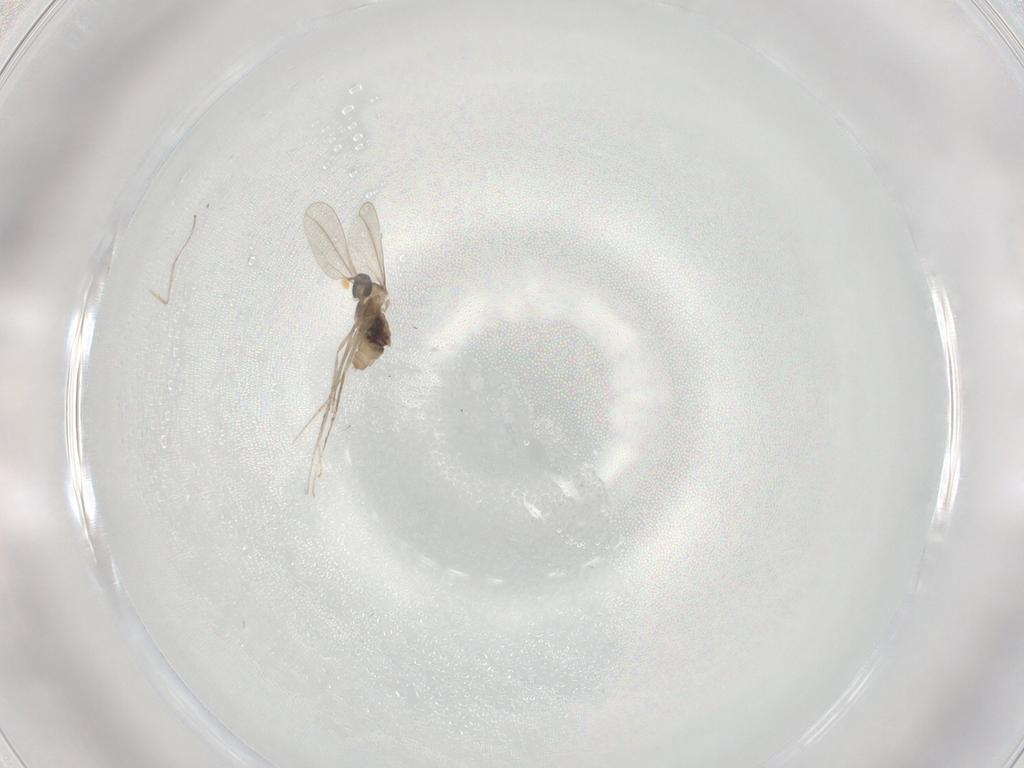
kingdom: Animalia
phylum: Arthropoda
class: Insecta
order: Diptera
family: Cecidomyiidae
